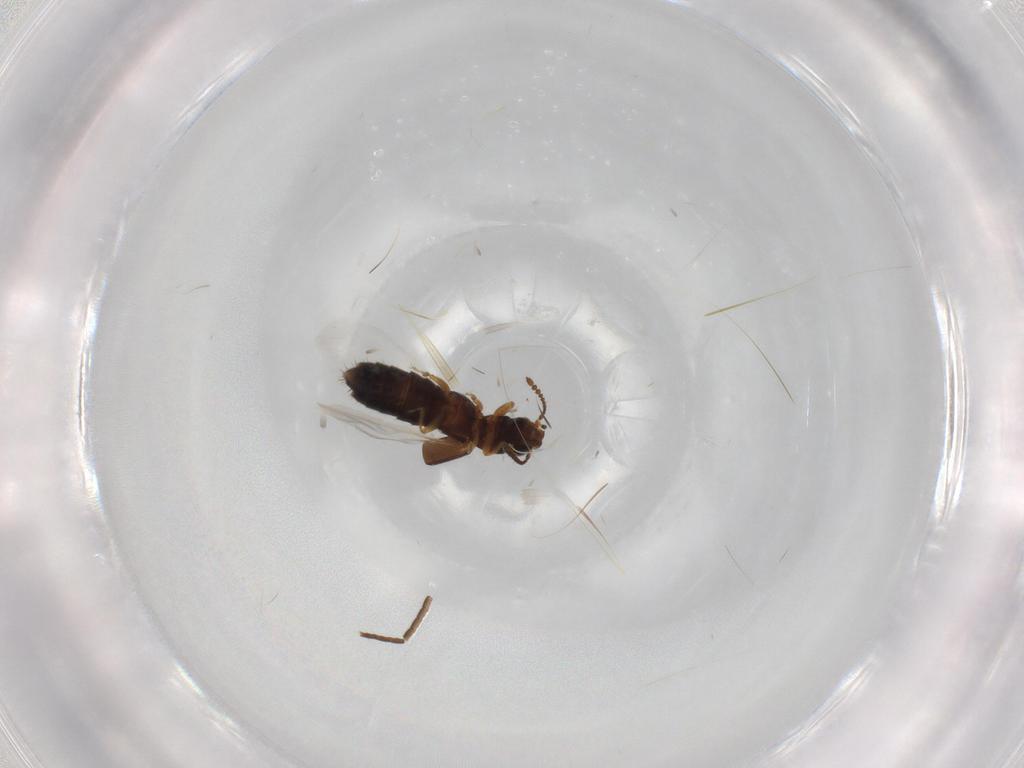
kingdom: Animalia
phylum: Arthropoda
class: Insecta
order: Coleoptera
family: Staphylinidae
